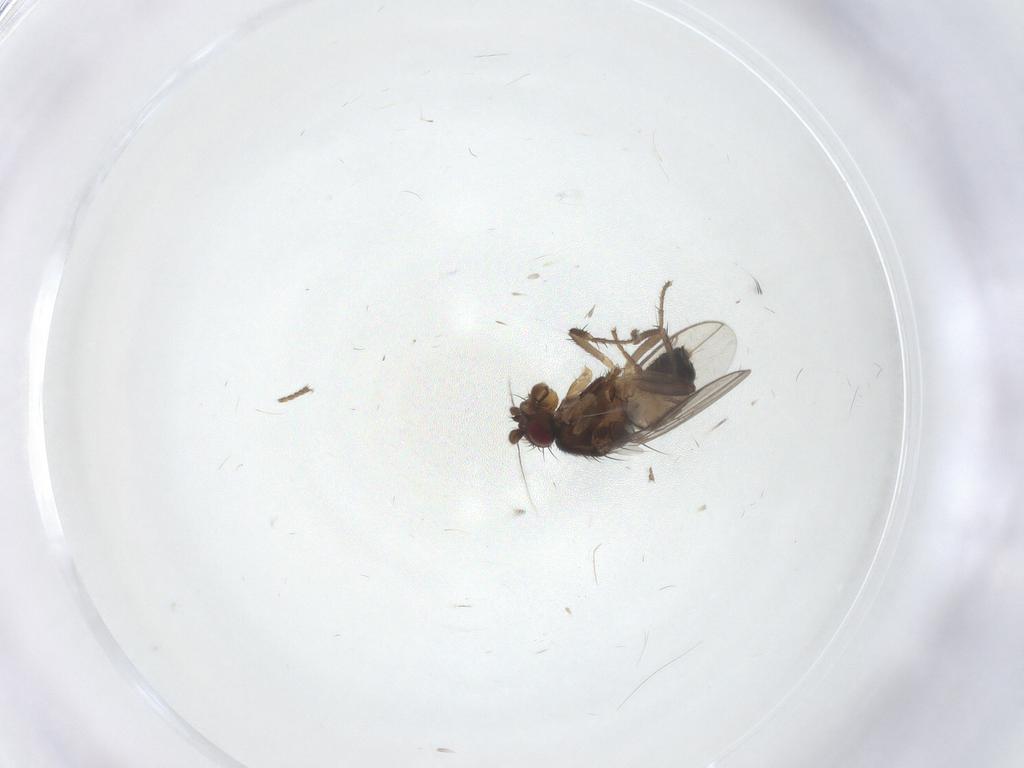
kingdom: Animalia
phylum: Arthropoda
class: Insecta
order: Diptera
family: Sphaeroceridae
